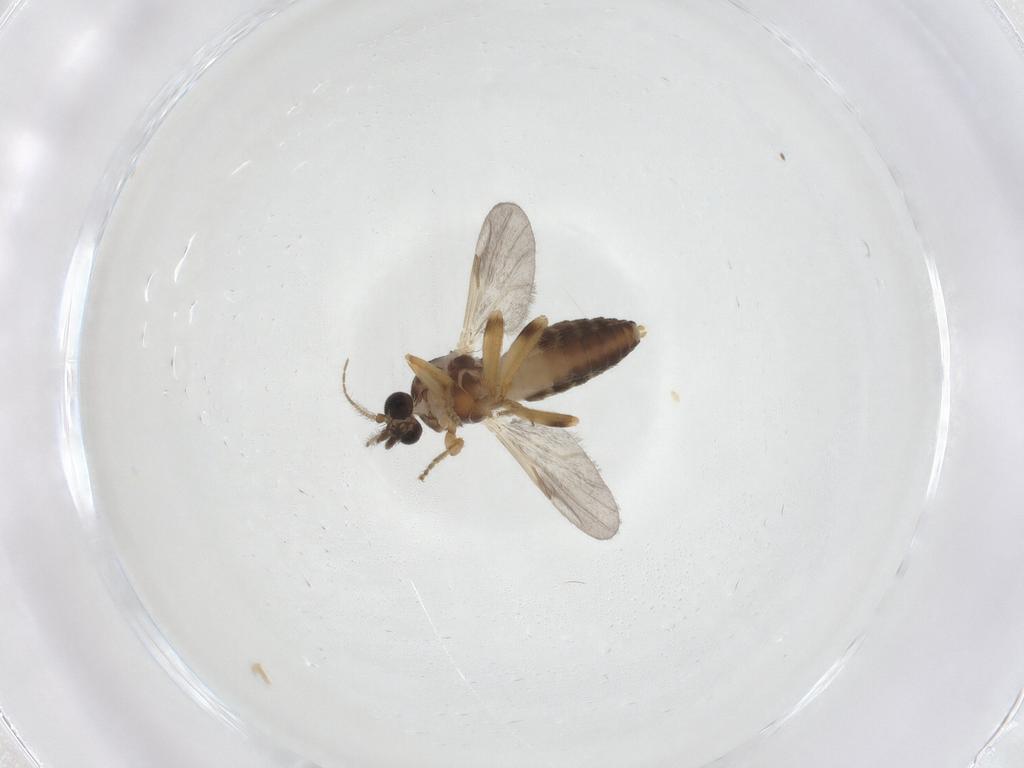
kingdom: Animalia
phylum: Arthropoda
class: Insecta
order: Diptera
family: Ceratopogonidae
